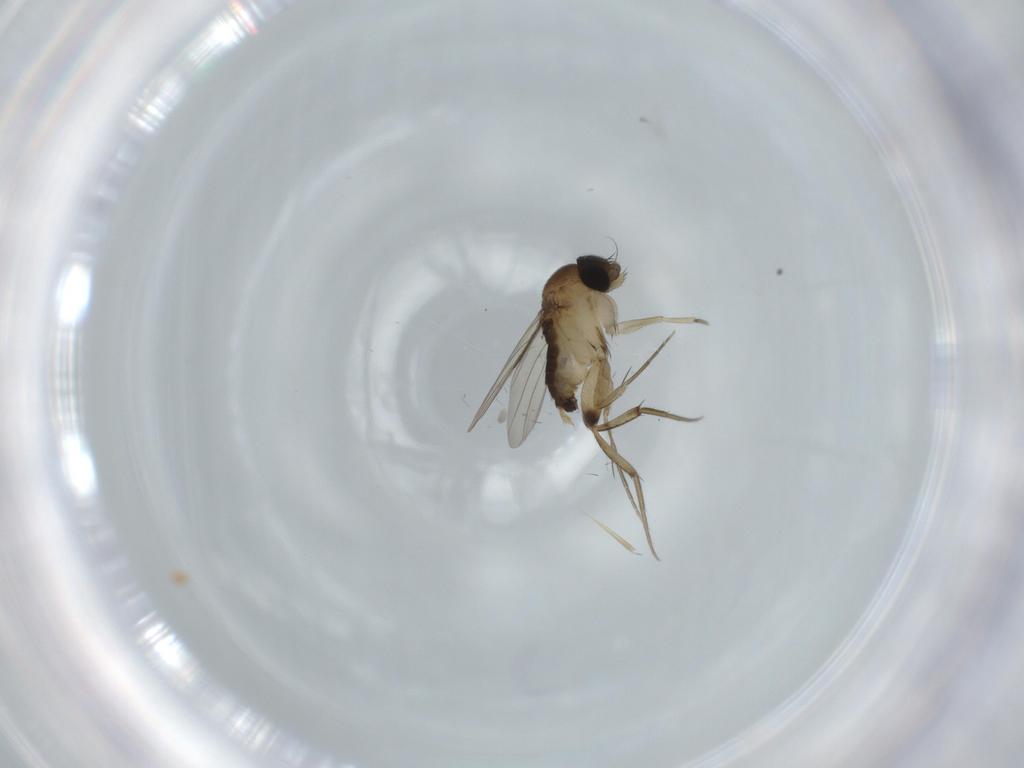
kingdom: Animalia
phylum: Arthropoda
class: Insecta
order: Diptera
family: Phoridae
